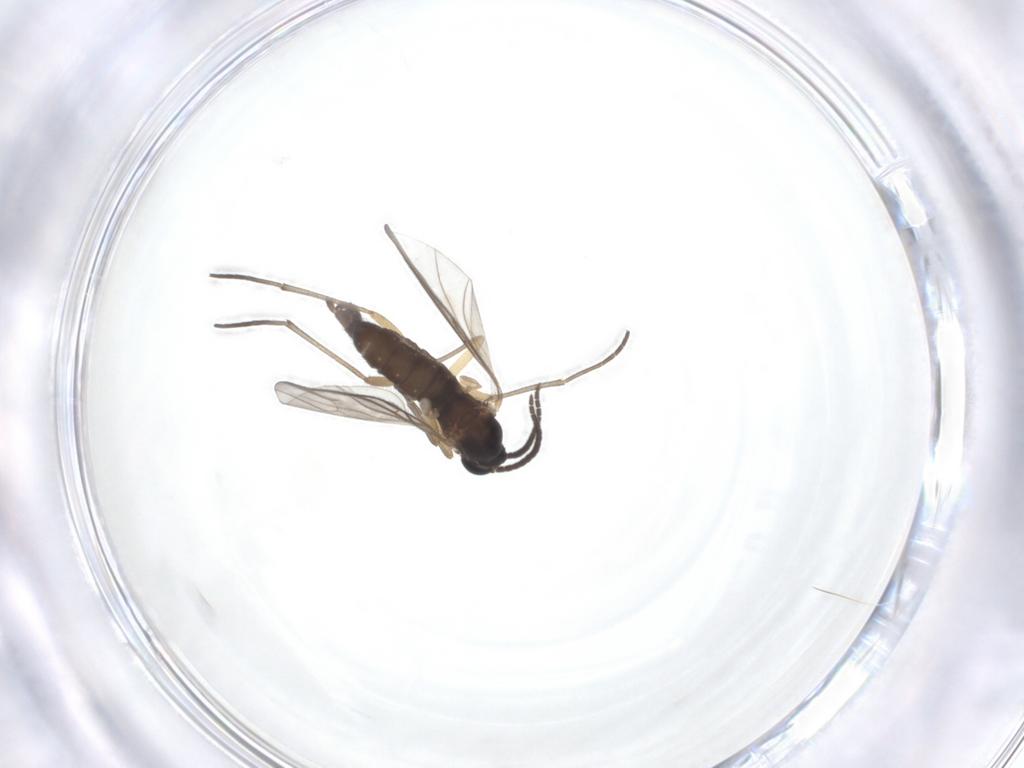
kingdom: Animalia
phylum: Arthropoda
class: Insecta
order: Diptera
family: Sciaridae
